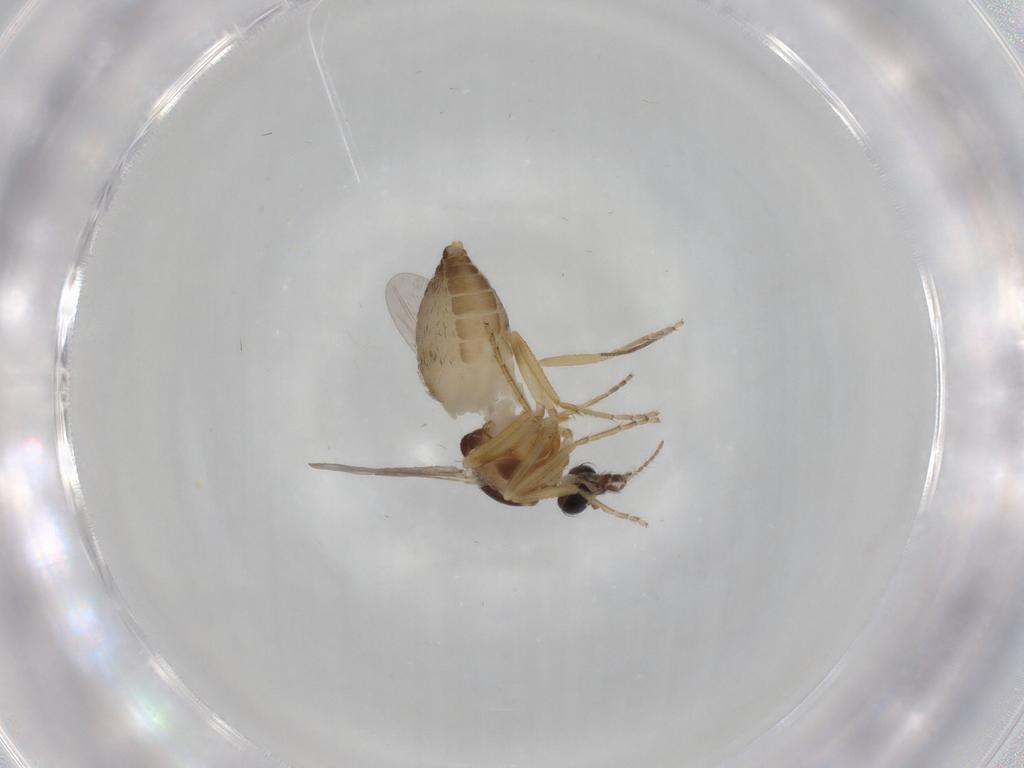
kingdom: Animalia
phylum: Arthropoda
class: Insecta
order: Diptera
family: Ceratopogonidae
